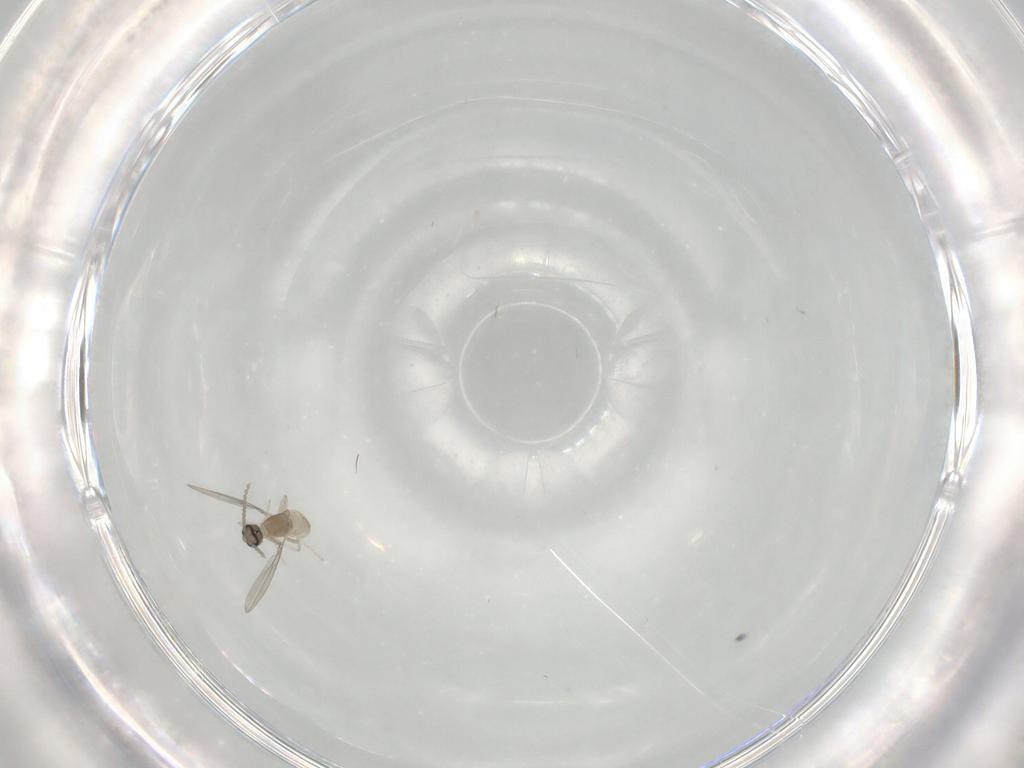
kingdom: Animalia
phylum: Arthropoda
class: Insecta
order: Diptera
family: Cecidomyiidae
